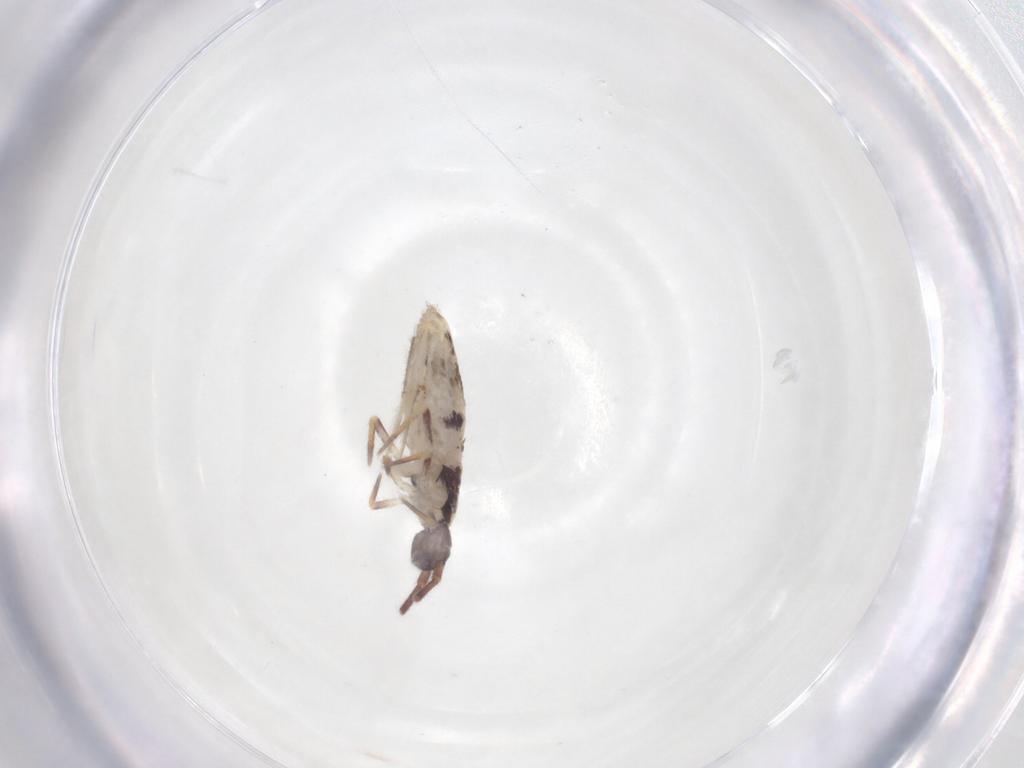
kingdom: Animalia
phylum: Arthropoda
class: Collembola
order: Entomobryomorpha
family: Entomobryidae
